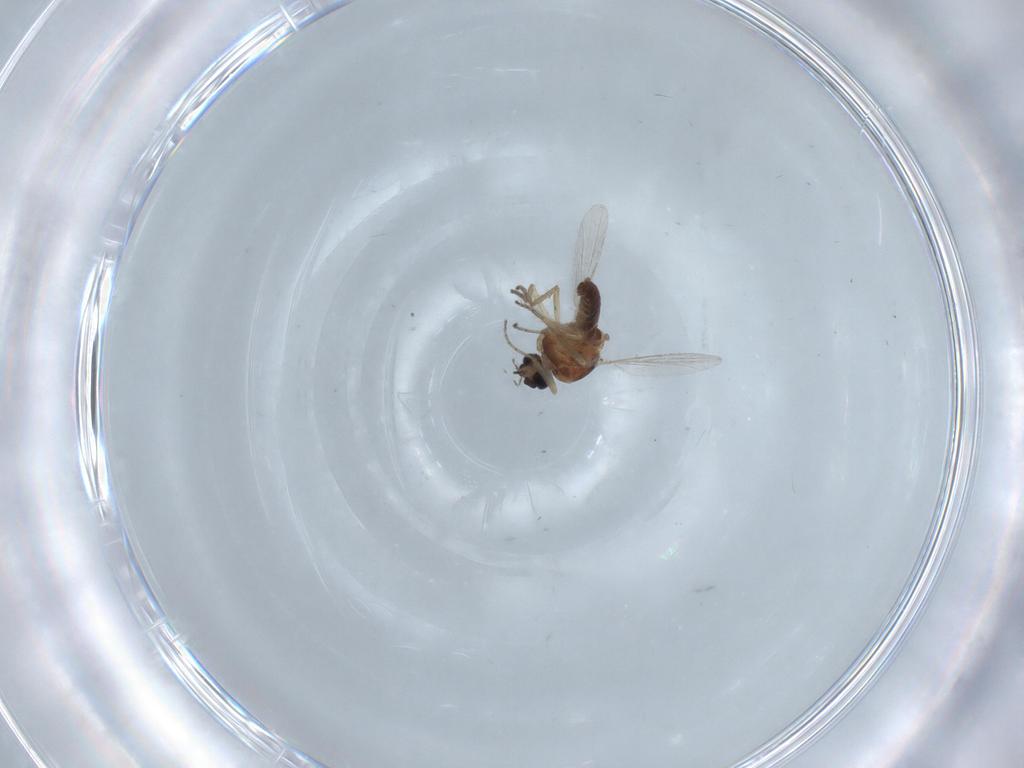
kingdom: Animalia
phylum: Arthropoda
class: Insecta
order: Diptera
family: Ceratopogonidae
